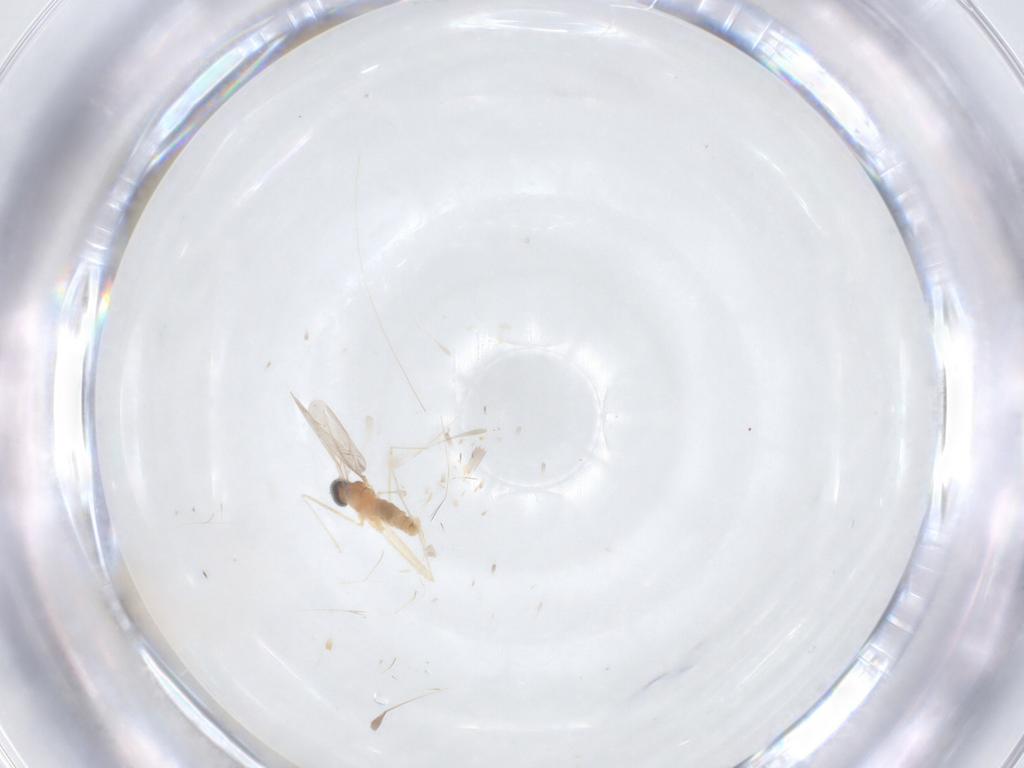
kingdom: Animalia
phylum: Arthropoda
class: Insecta
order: Diptera
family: Cecidomyiidae
